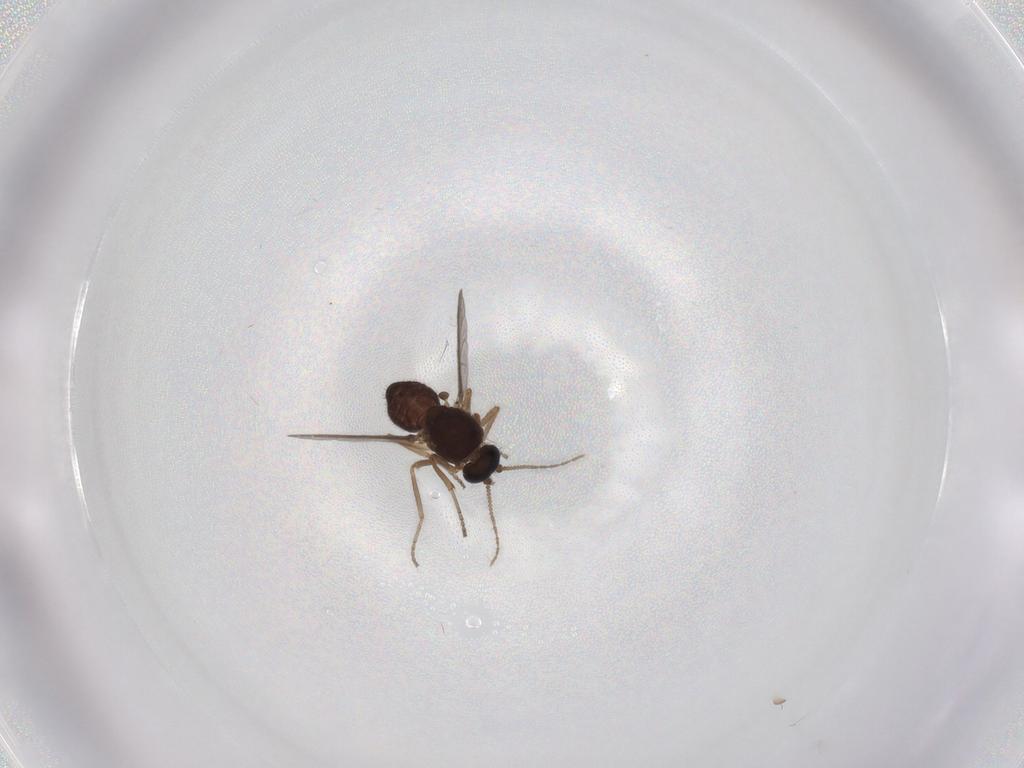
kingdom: Animalia
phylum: Arthropoda
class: Insecta
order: Diptera
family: Ceratopogonidae
